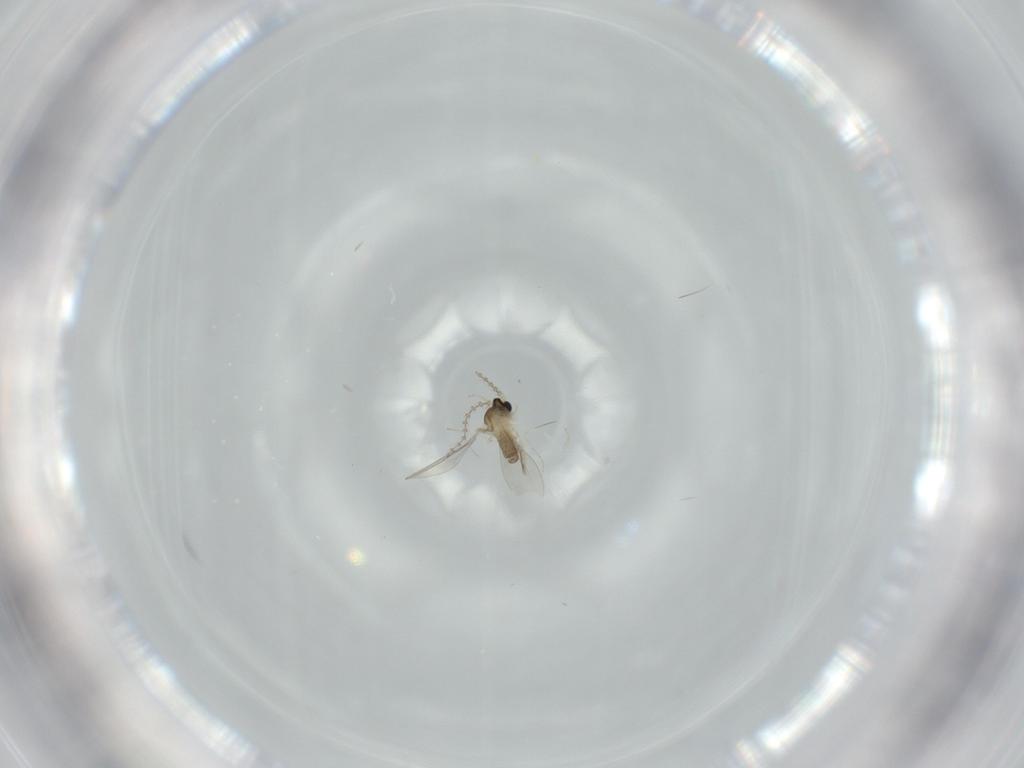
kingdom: Animalia
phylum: Arthropoda
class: Insecta
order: Diptera
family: Cecidomyiidae
